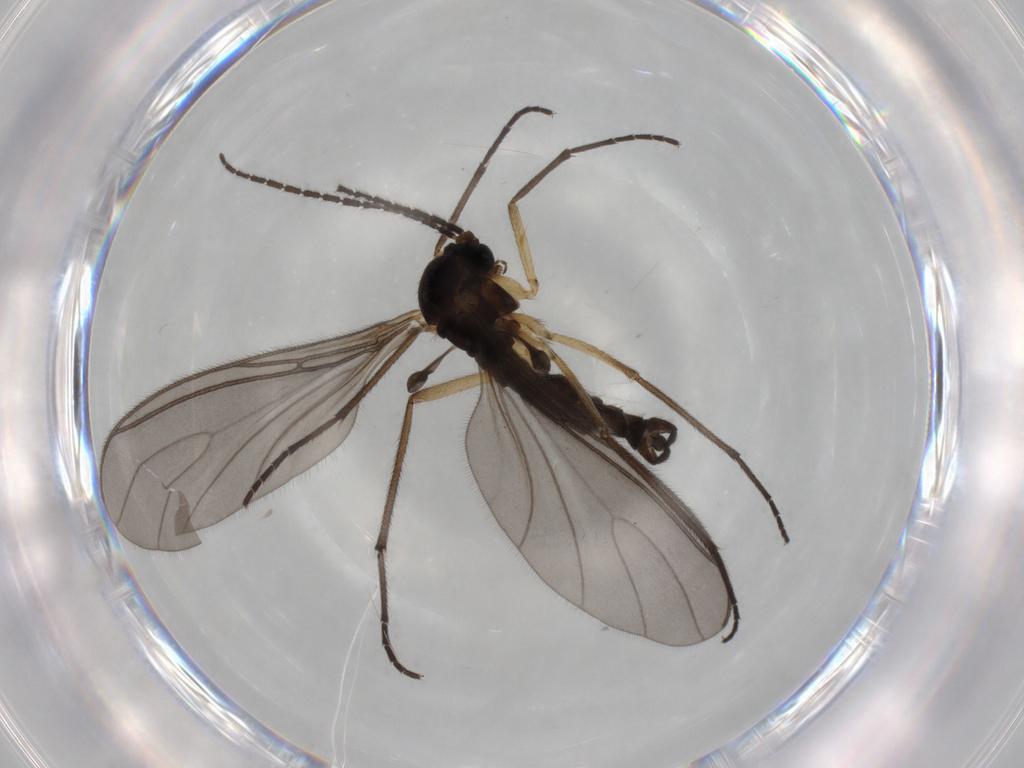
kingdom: Animalia
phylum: Arthropoda
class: Insecta
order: Diptera
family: Sciaridae
